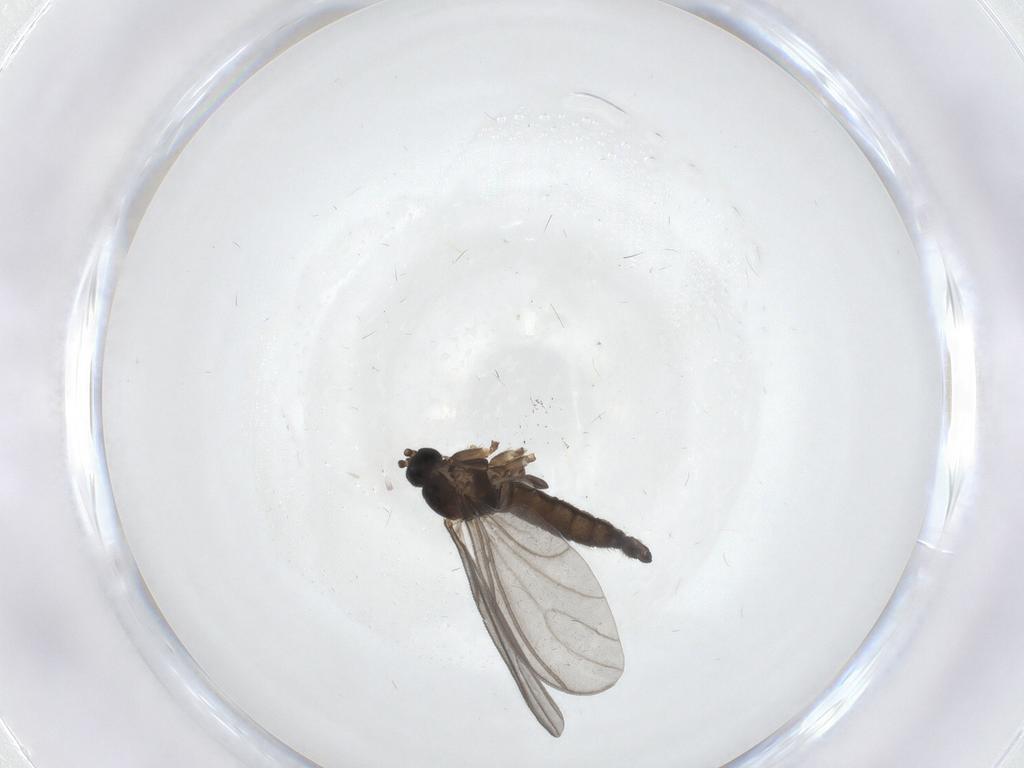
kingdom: Animalia
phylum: Arthropoda
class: Insecta
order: Diptera
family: Sciaridae
